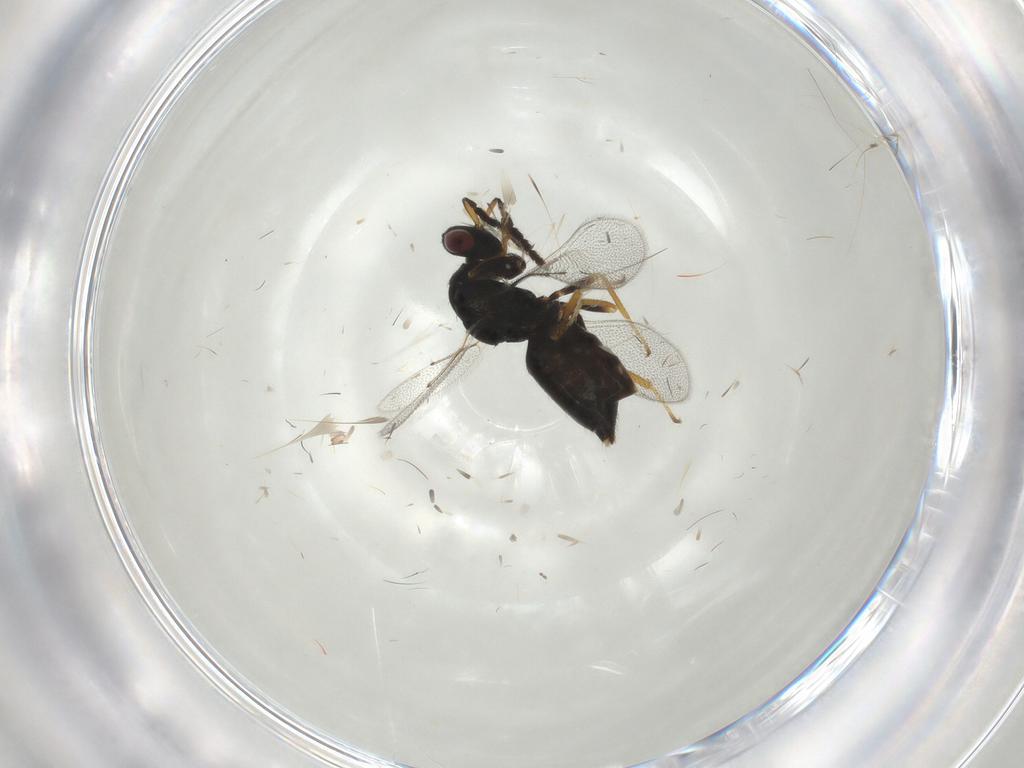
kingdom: Animalia
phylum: Arthropoda
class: Insecta
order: Hymenoptera
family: Eulophidae
